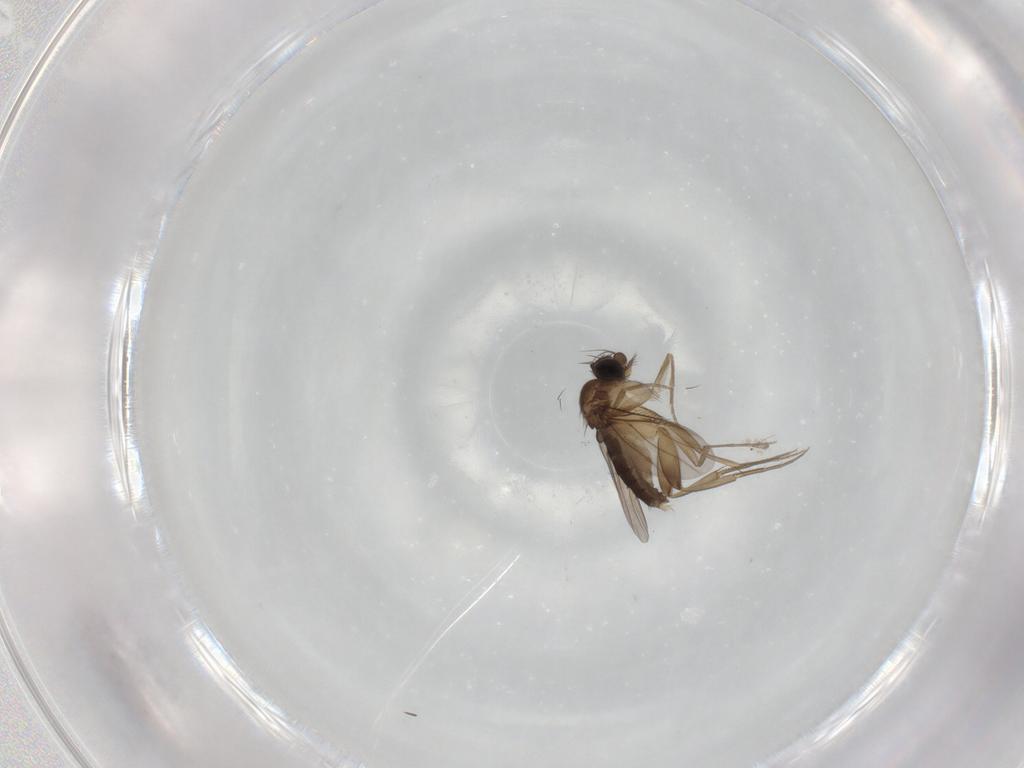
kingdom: Animalia
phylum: Arthropoda
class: Insecta
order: Diptera
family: Phoridae
